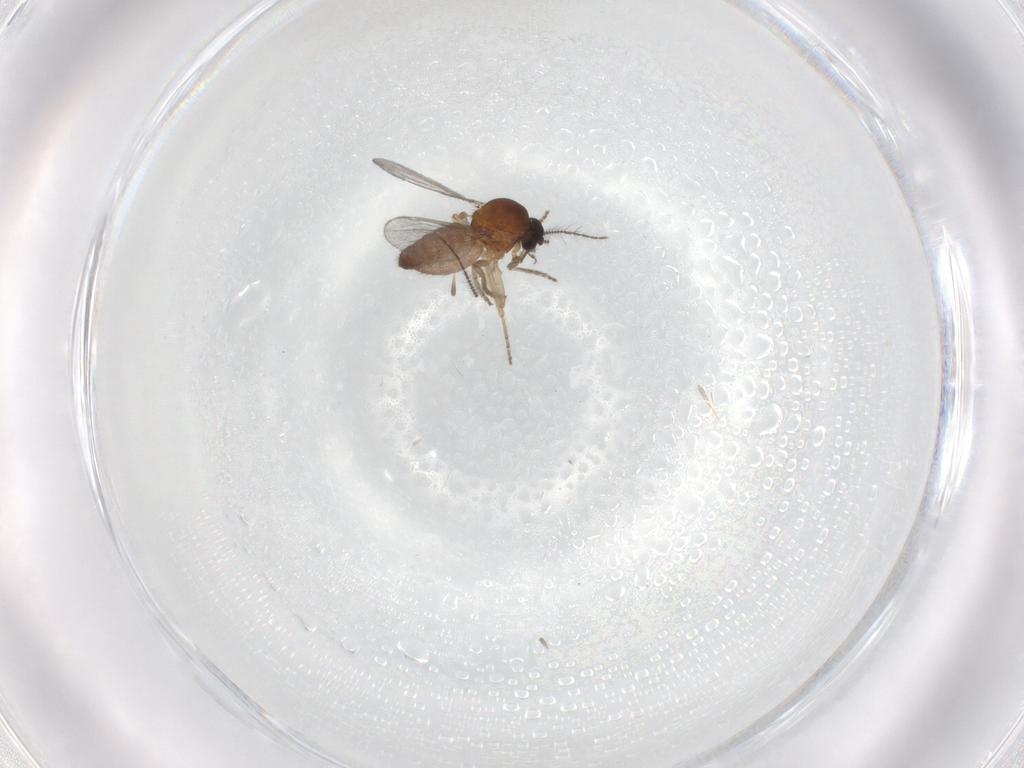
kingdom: Animalia
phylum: Arthropoda
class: Insecta
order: Diptera
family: Ceratopogonidae
